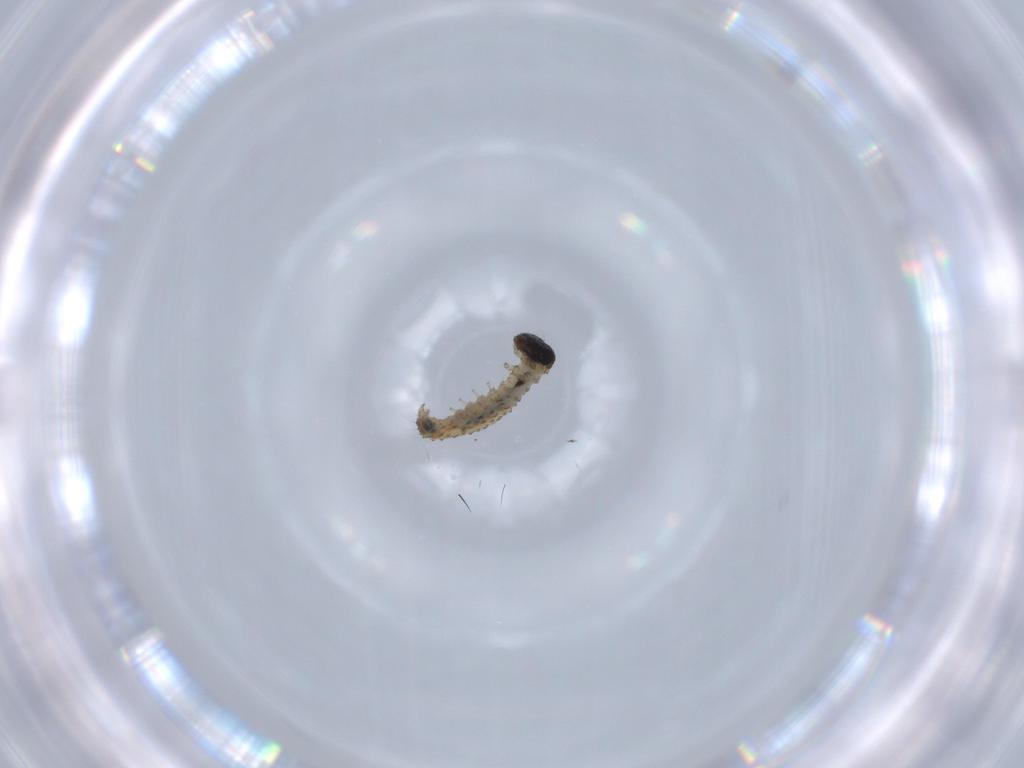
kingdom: Animalia
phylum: Arthropoda
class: Insecta
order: Lepidoptera
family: Crambidae
